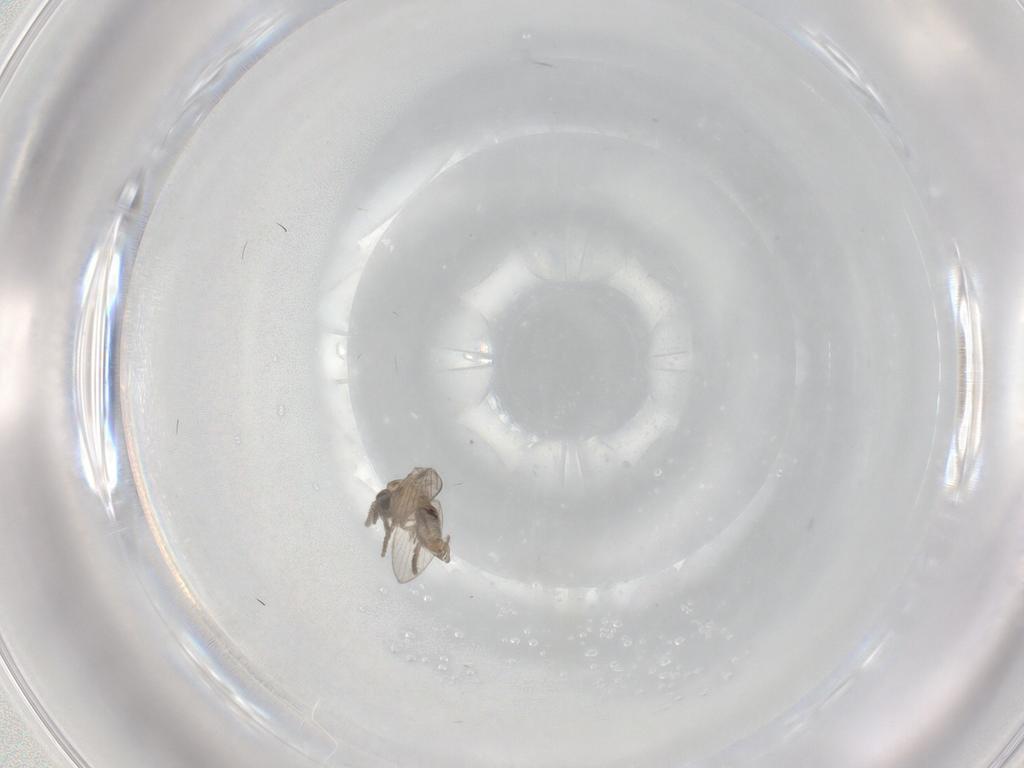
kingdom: Animalia
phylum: Arthropoda
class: Insecta
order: Diptera
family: Psychodidae
